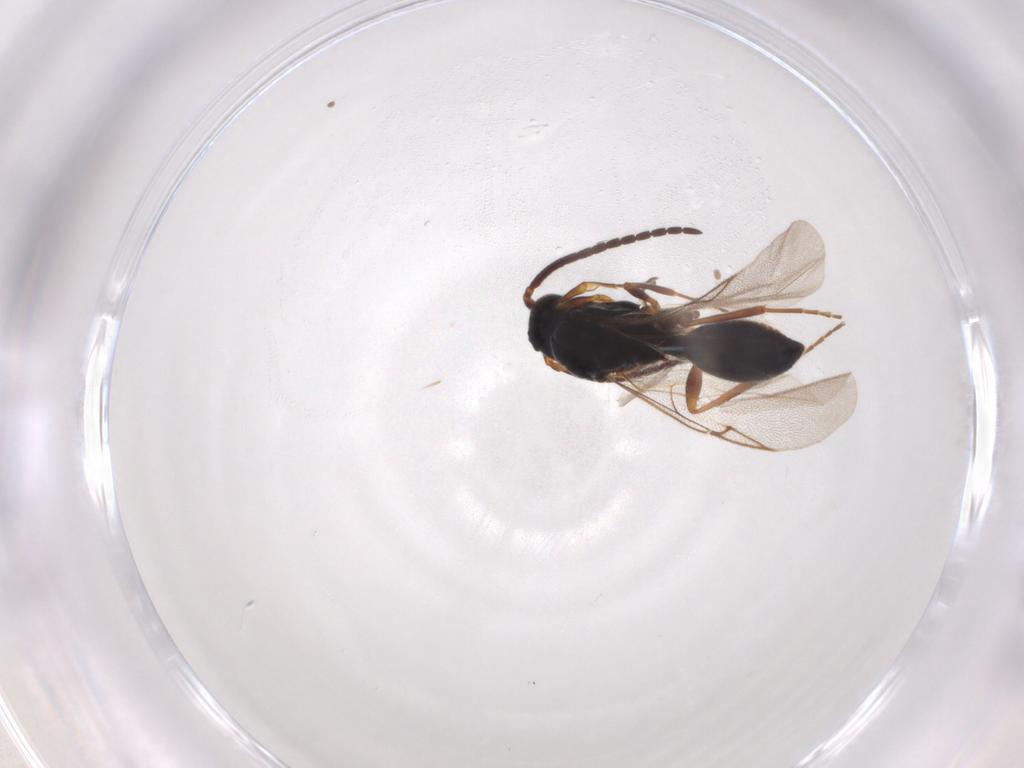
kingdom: Animalia
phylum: Arthropoda
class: Insecta
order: Hymenoptera
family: Diapriidae
